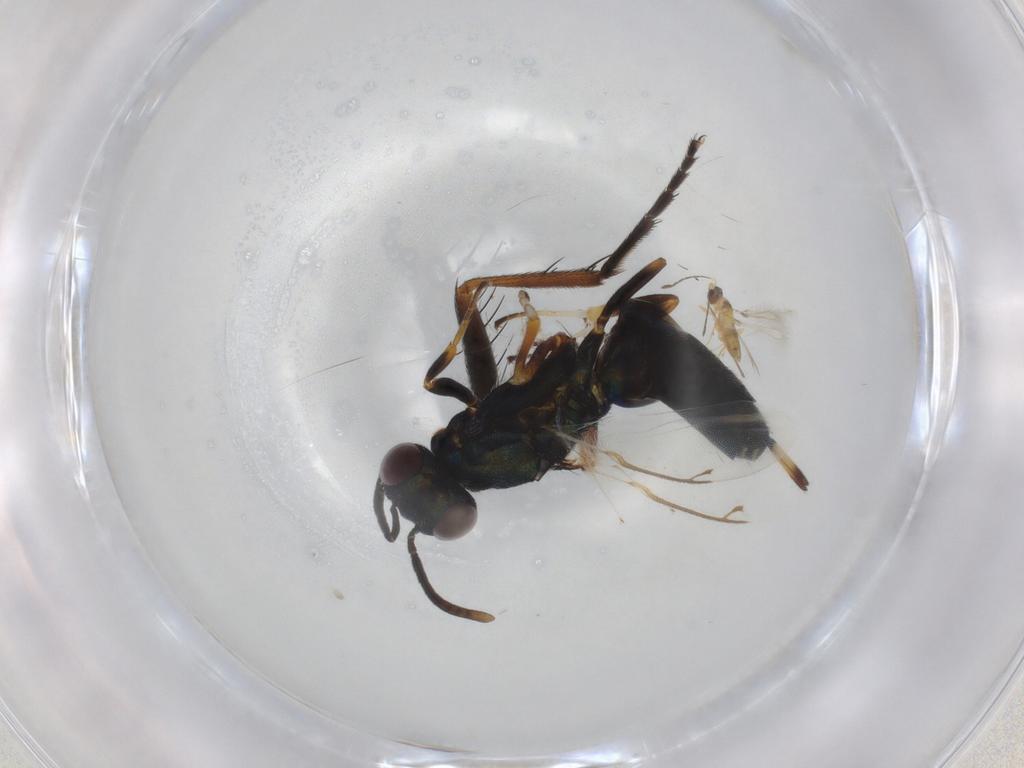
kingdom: Animalia
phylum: Arthropoda
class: Insecta
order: Hymenoptera
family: Eupelmidae
